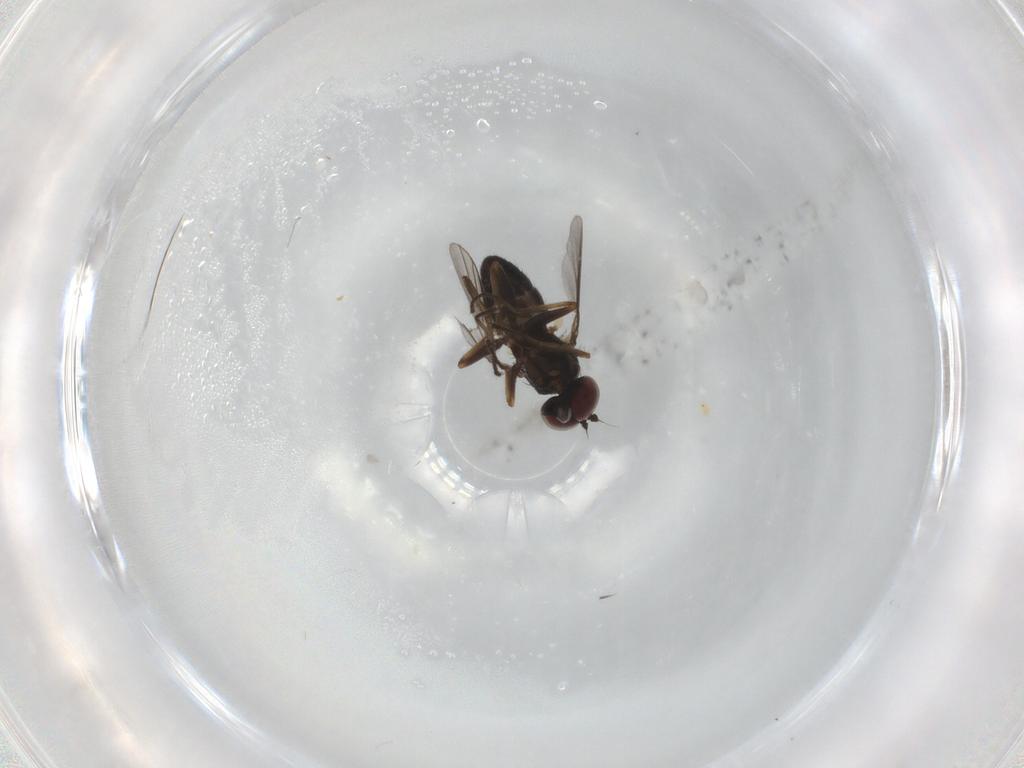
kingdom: Animalia
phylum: Arthropoda
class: Insecta
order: Diptera
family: Dolichopodidae
